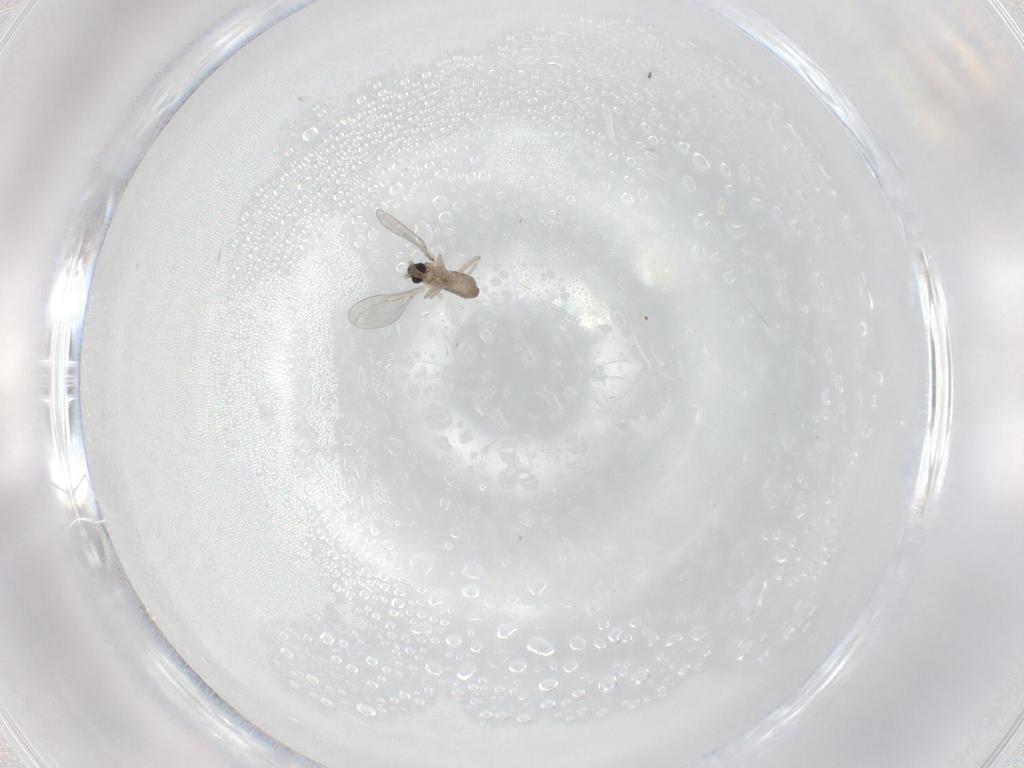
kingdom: Animalia
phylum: Arthropoda
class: Insecta
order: Diptera
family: Cecidomyiidae
